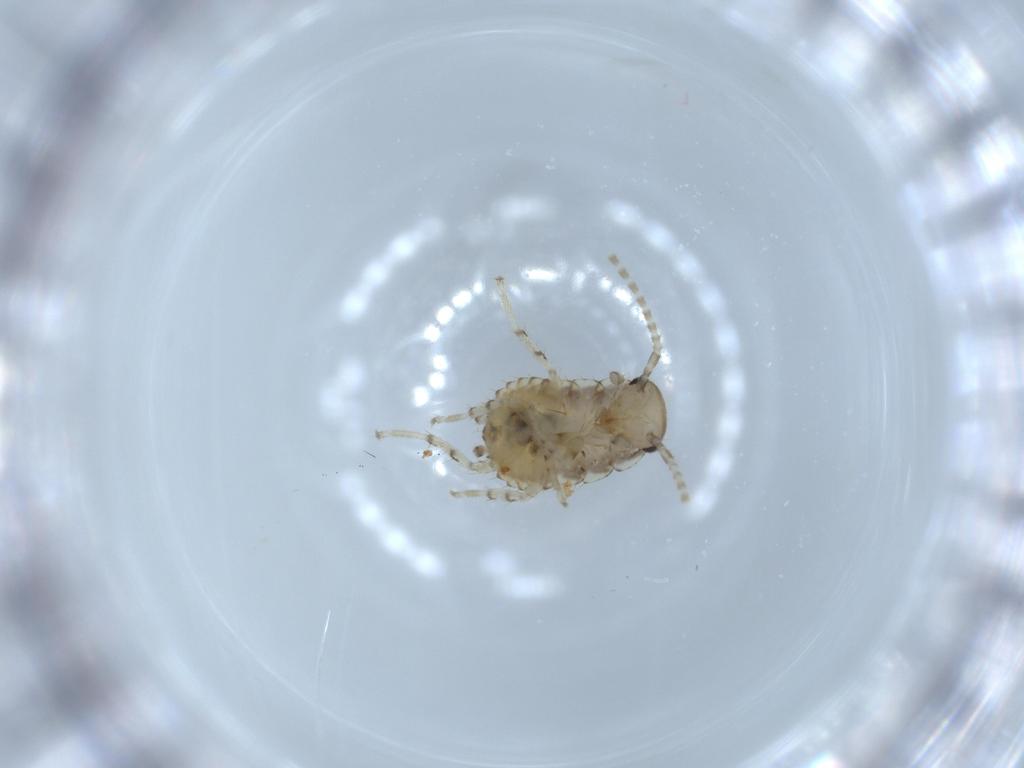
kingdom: Animalia
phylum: Arthropoda
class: Insecta
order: Blattodea
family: Ectobiidae
